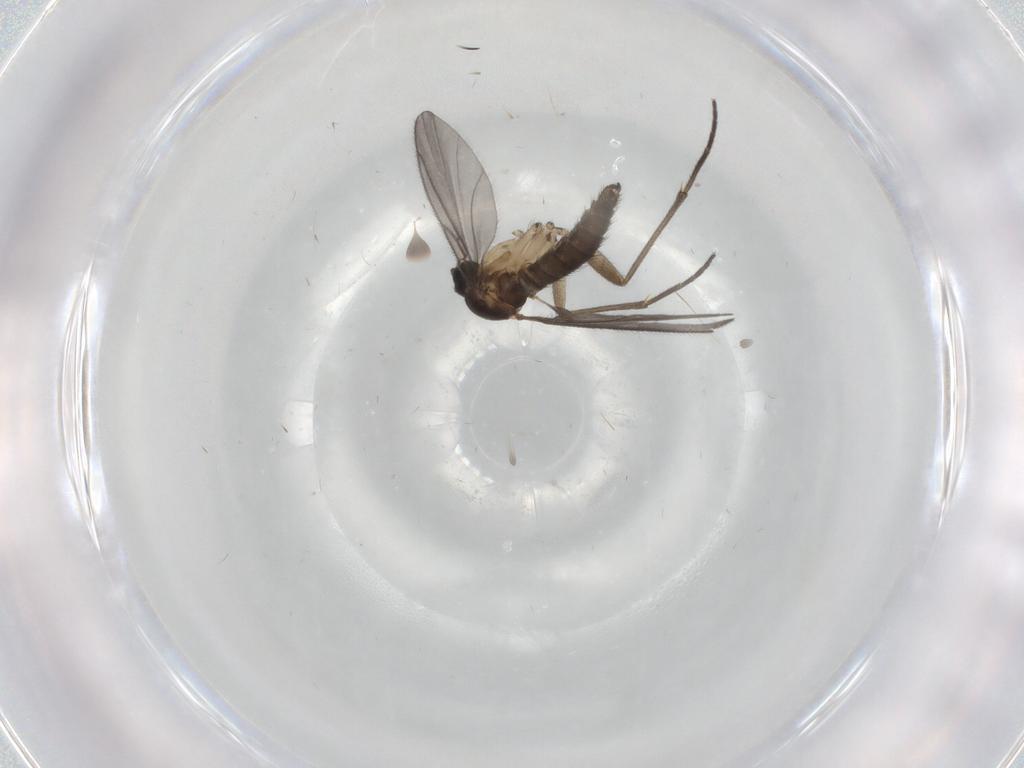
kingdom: Animalia
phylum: Arthropoda
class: Insecta
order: Diptera
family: Sciaridae
